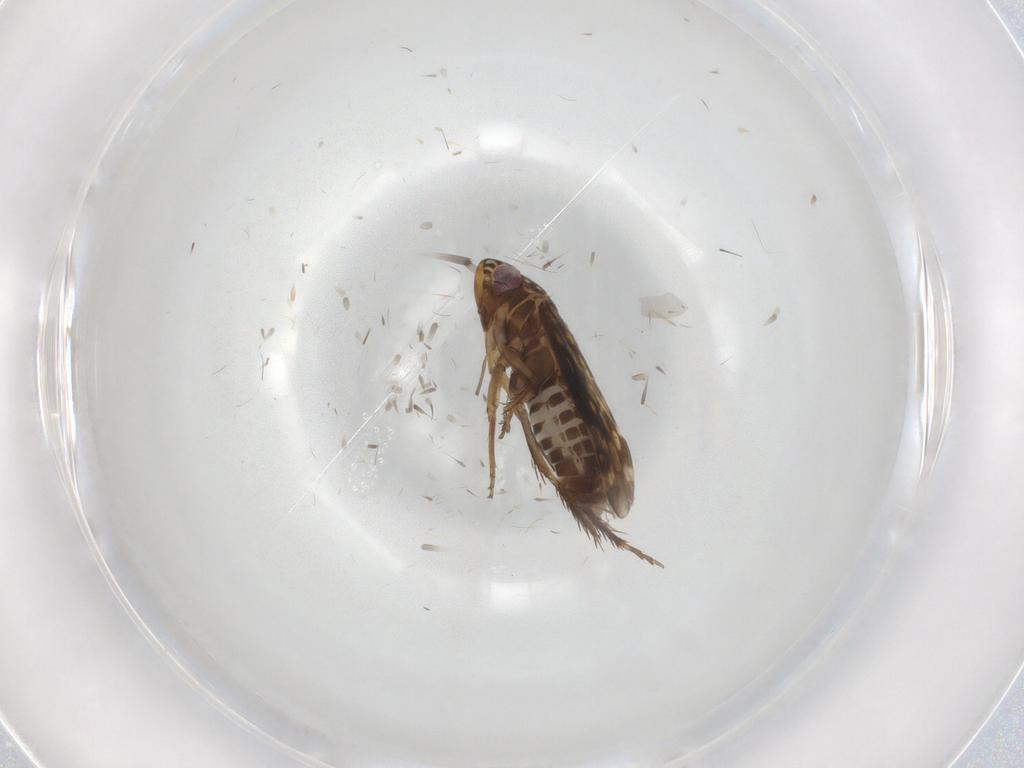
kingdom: Animalia
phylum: Arthropoda
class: Insecta
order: Hemiptera
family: Cicadellidae
